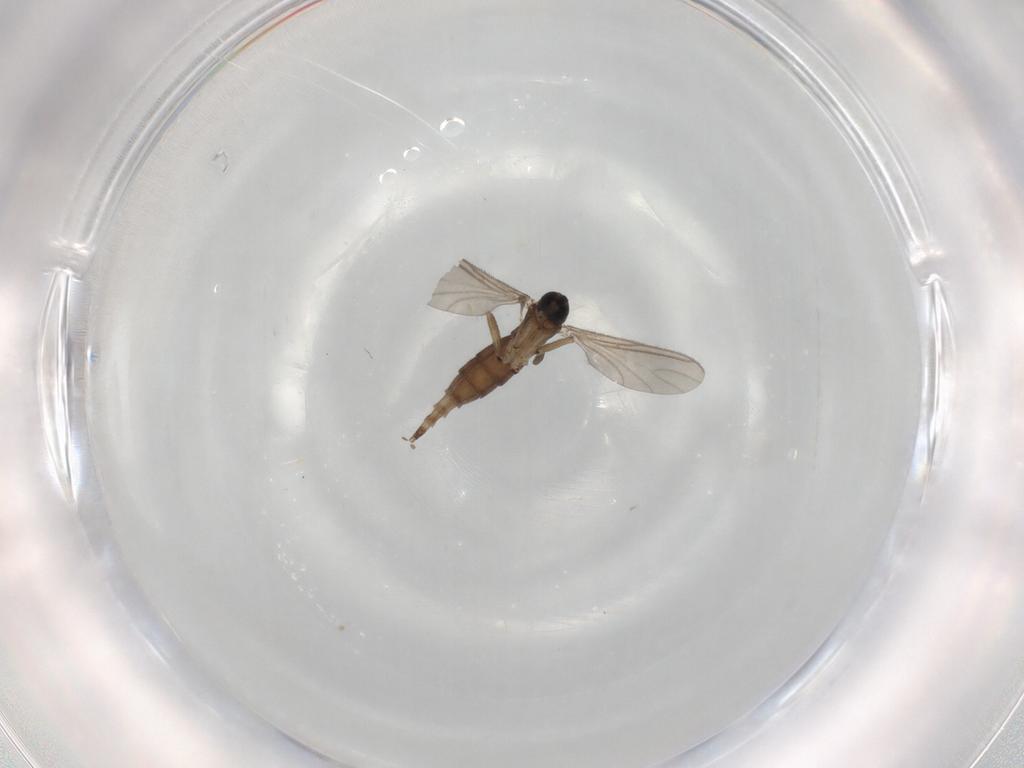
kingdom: Animalia
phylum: Arthropoda
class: Insecta
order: Diptera
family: Sciaridae
